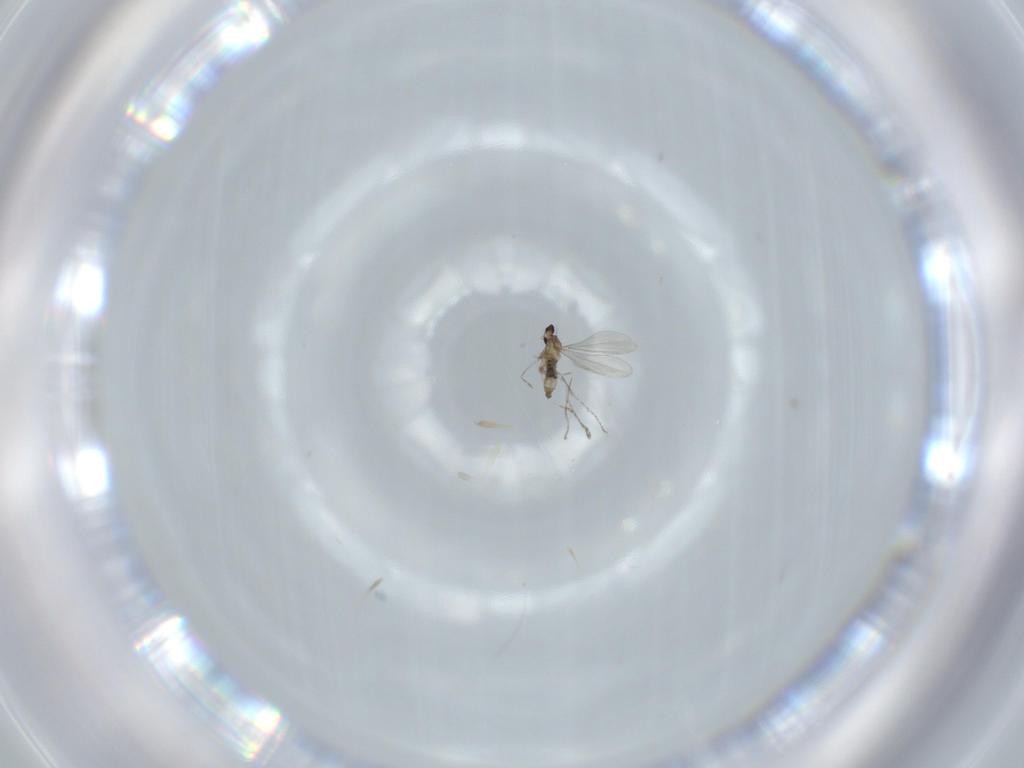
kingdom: Animalia
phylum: Arthropoda
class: Insecta
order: Diptera
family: Cecidomyiidae
